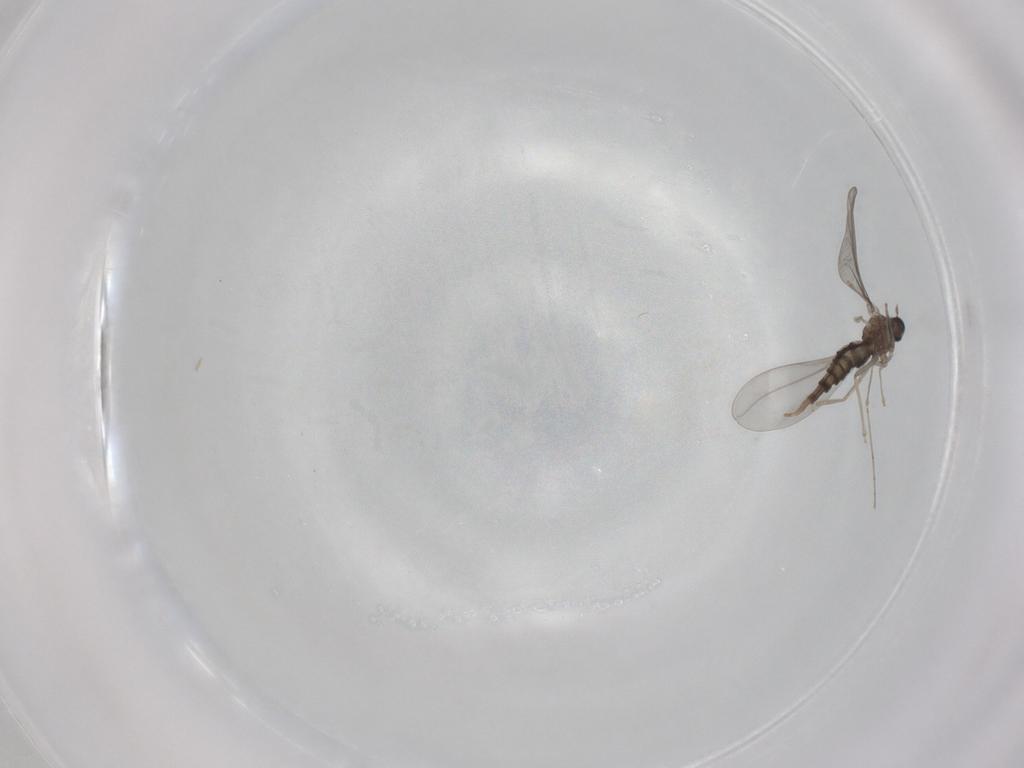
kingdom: Animalia
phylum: Arthropoda
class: Insecta
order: Diptera
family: Cecidomyiidae
